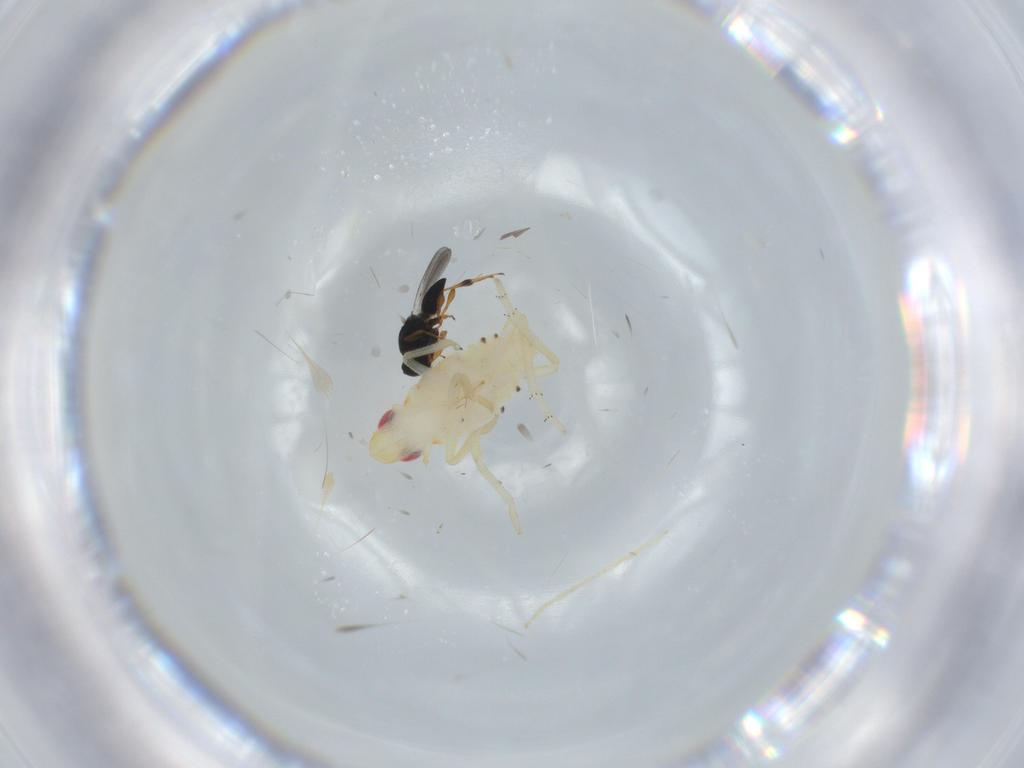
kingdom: Animalia
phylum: Arthropoda
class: Insecta
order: Hemiptera
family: Tropiduchidae
